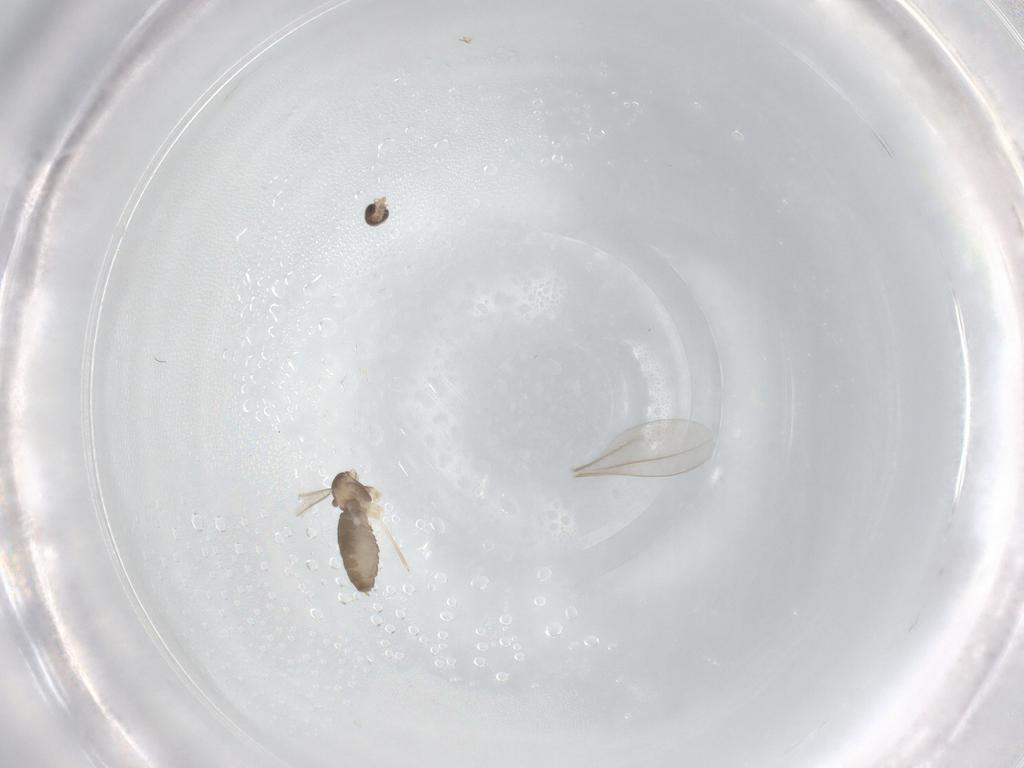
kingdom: Animalia
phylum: Arthropoda
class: Insecta
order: Diptera
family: Cecidomyiidae
